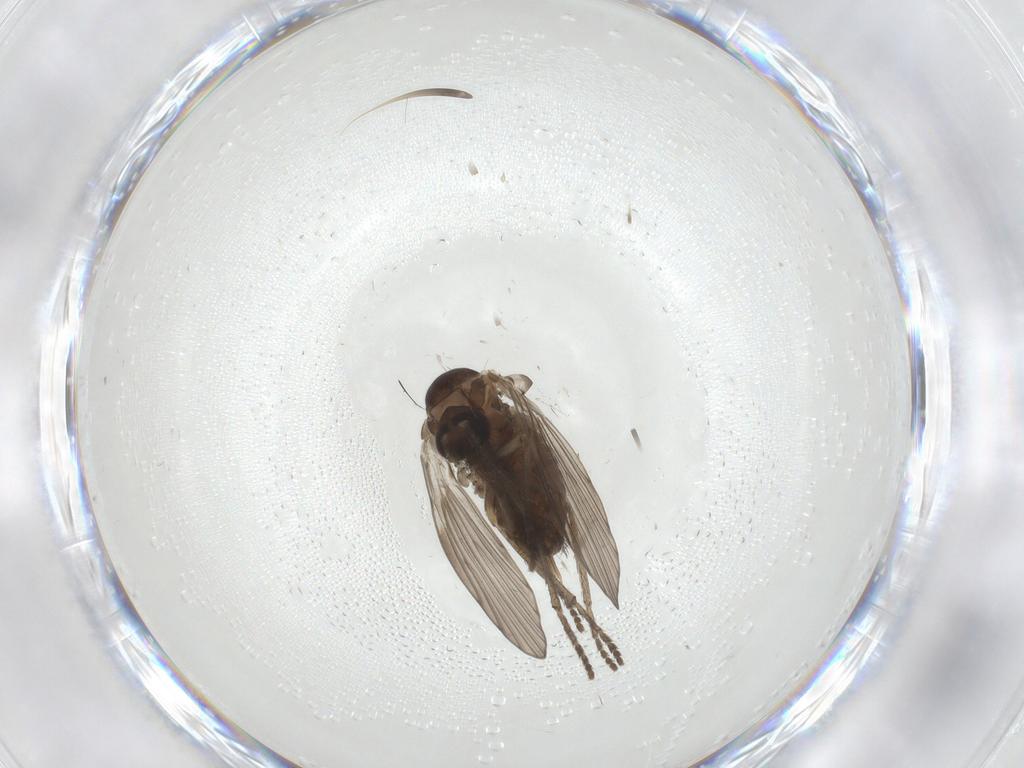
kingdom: Animalia
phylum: Arthropoda
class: Insecta
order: Diptera
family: Psychodidae
